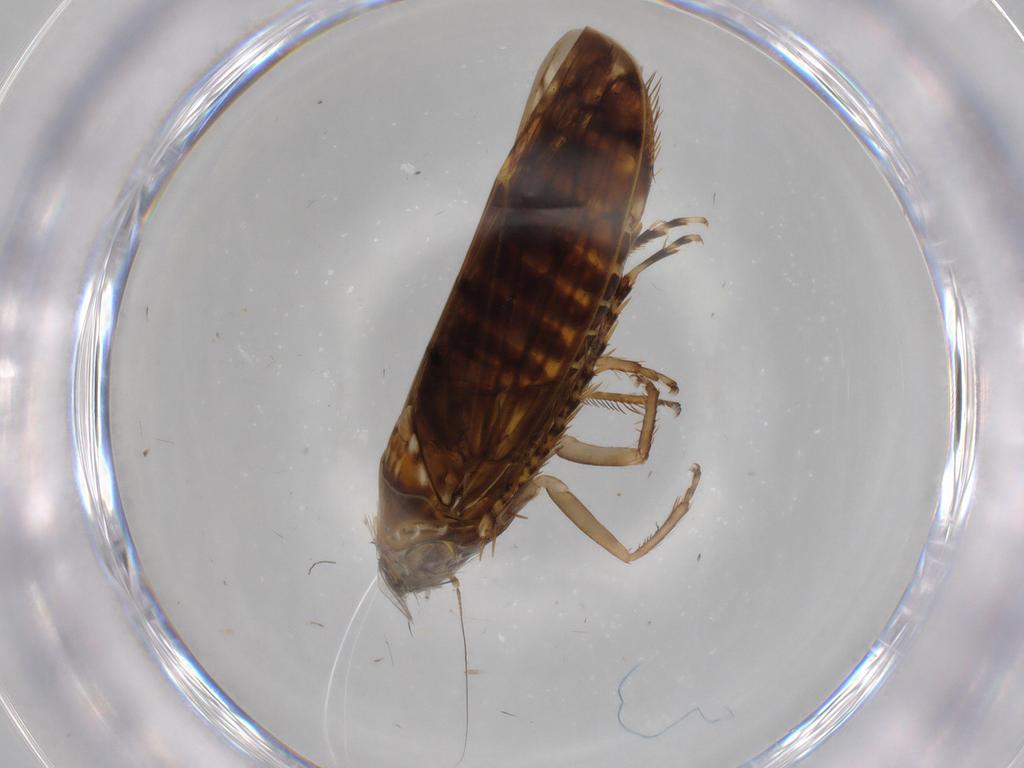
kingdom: Animalia
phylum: Arthropoda
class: Insecta
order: Hemiptera
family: Cicadellidae
